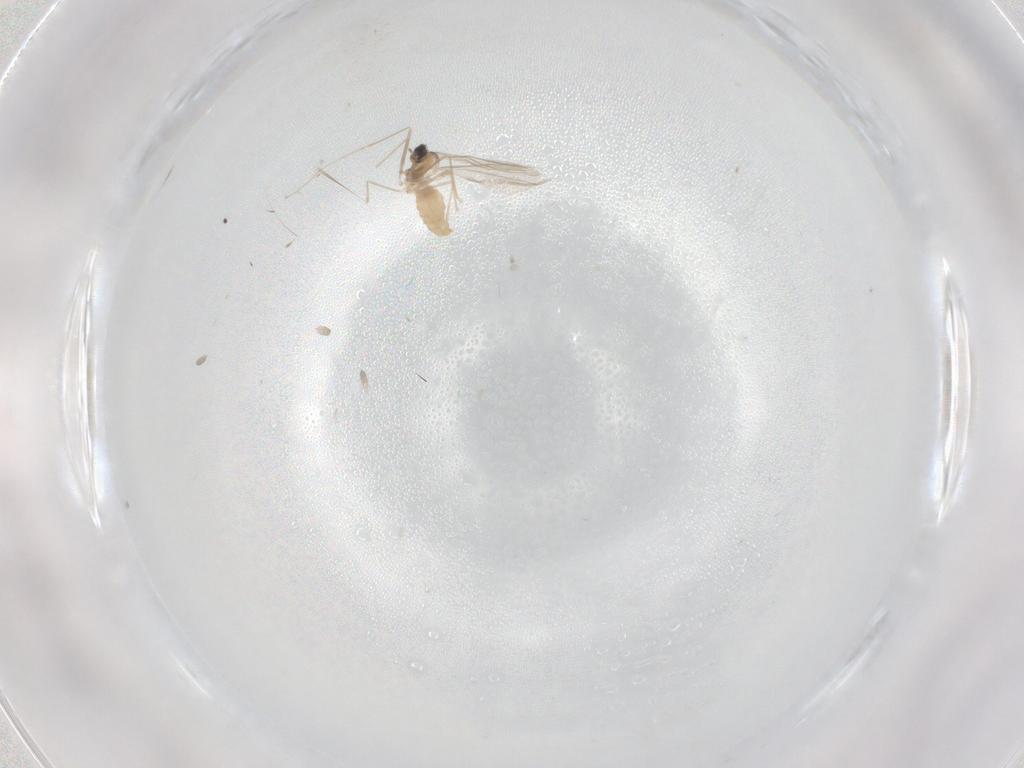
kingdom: Animalia
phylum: Arthropoda
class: Insecta
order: Diptera
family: Cecidomyiidae
